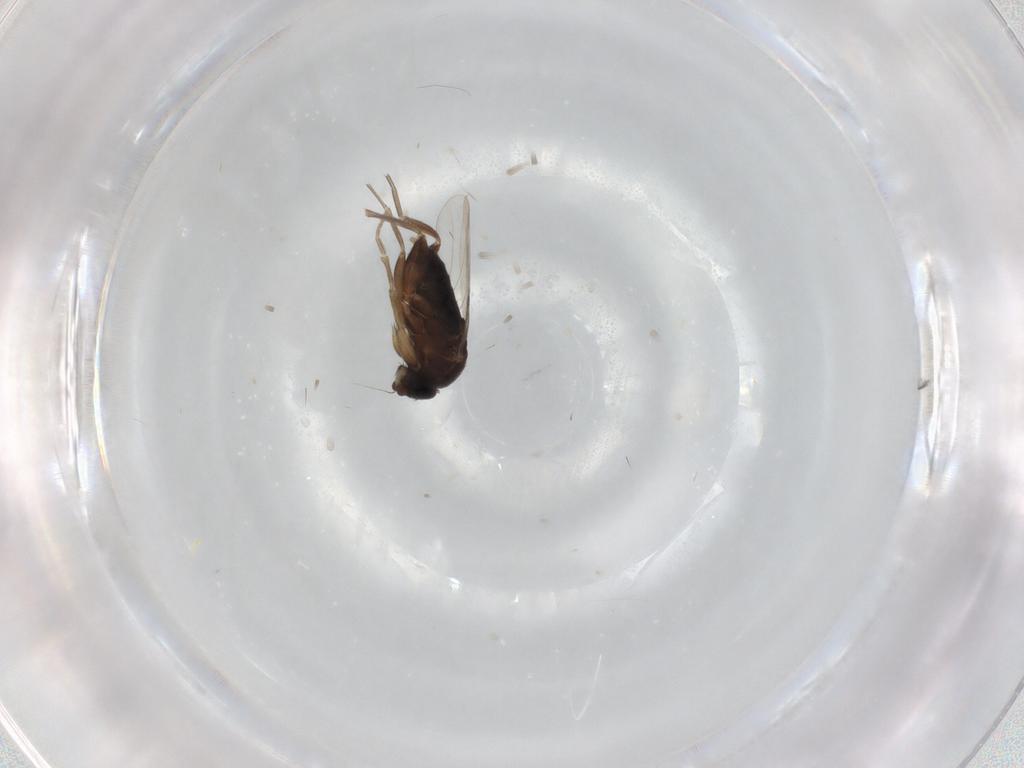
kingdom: Animalia
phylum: Arthropoda
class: Insecta
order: Diptera
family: Phoridae
